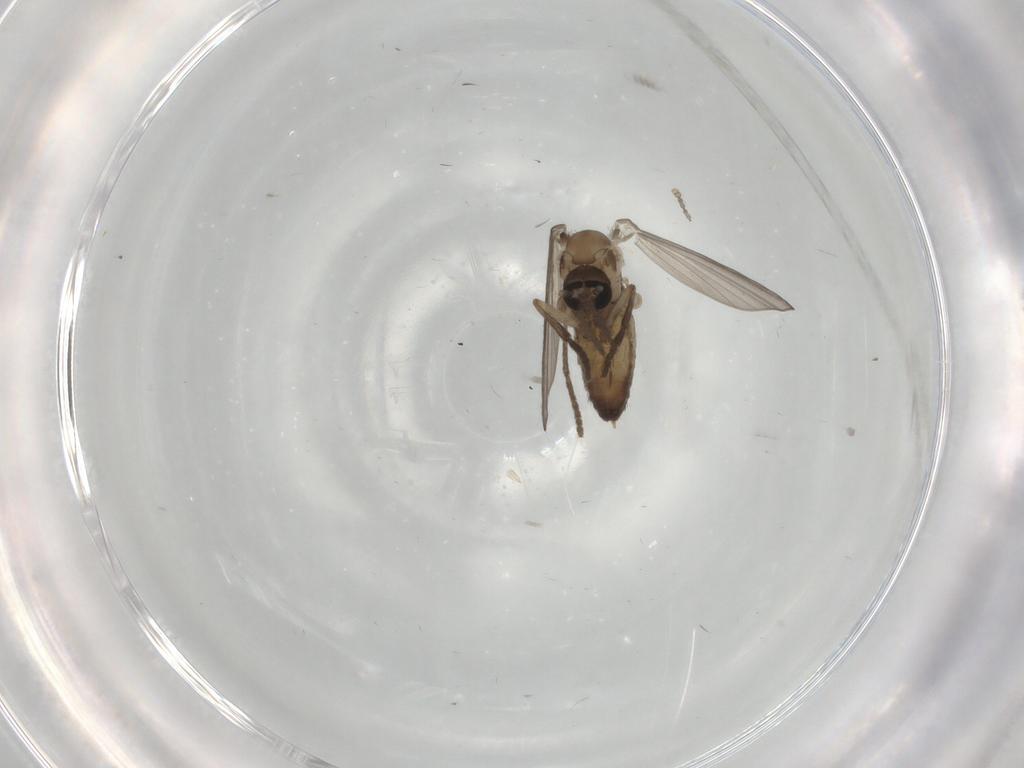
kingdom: Animalia
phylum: Arthropoda
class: Insecta
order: Diptera
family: Psychodidae
